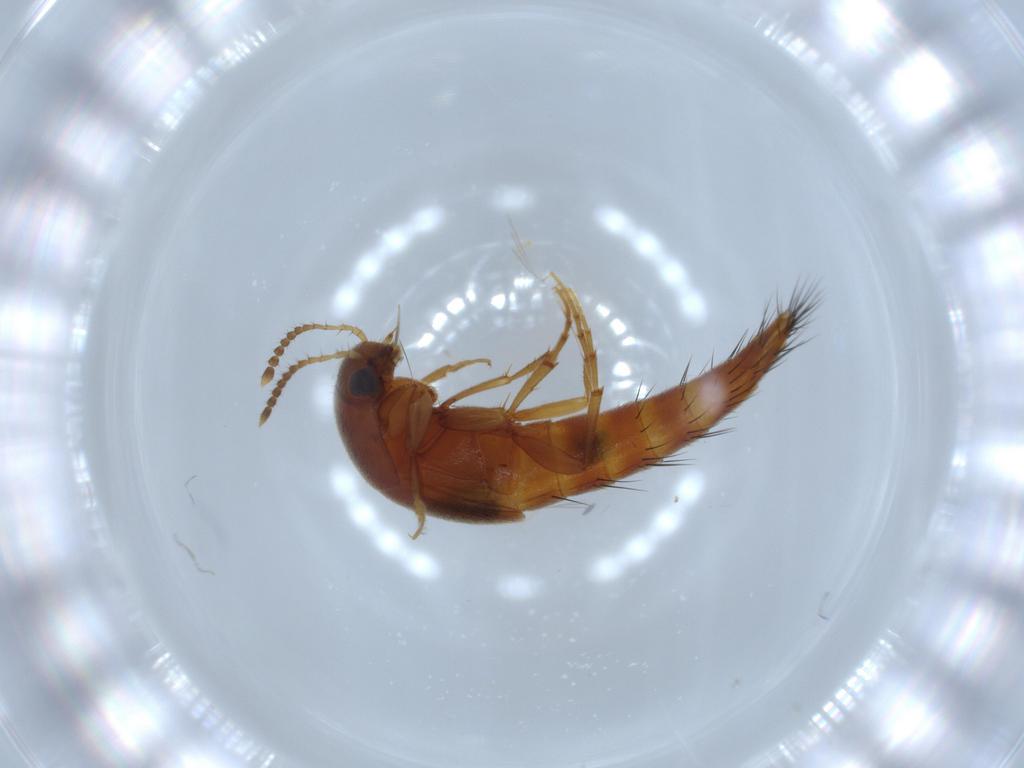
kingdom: Animalia
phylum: Arthropoda
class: Insecta
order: Coleoptera
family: Staphylinidae
